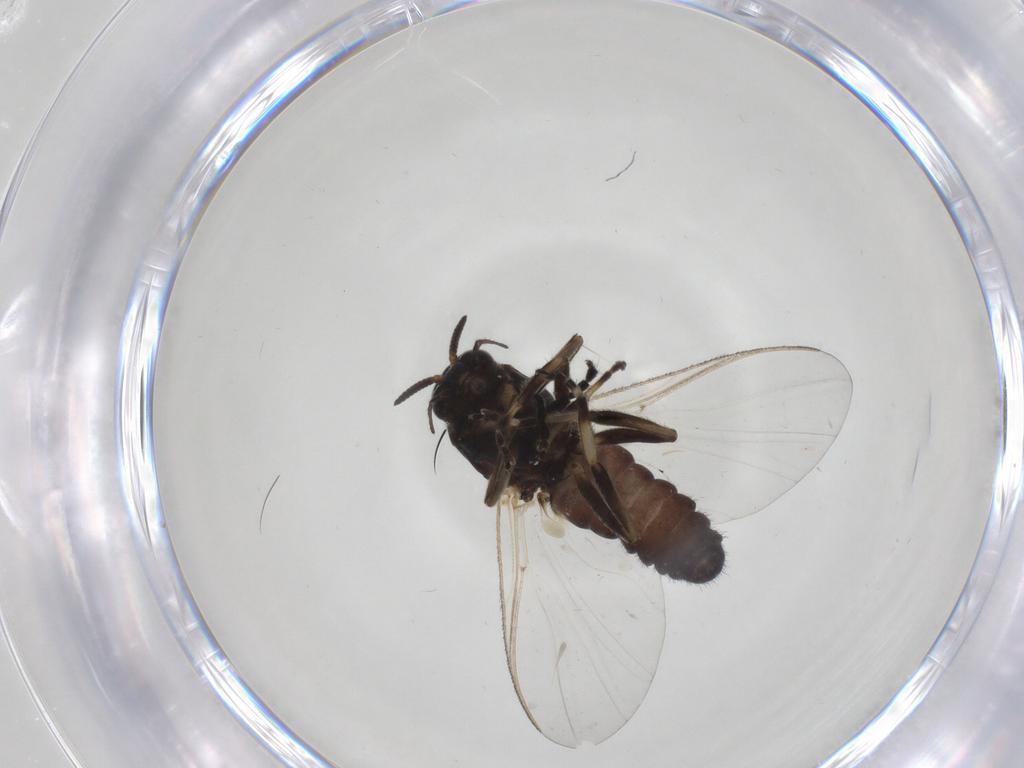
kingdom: Animalia
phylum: Arthropoda
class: Insecta
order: Diptera
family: Simuliidae
